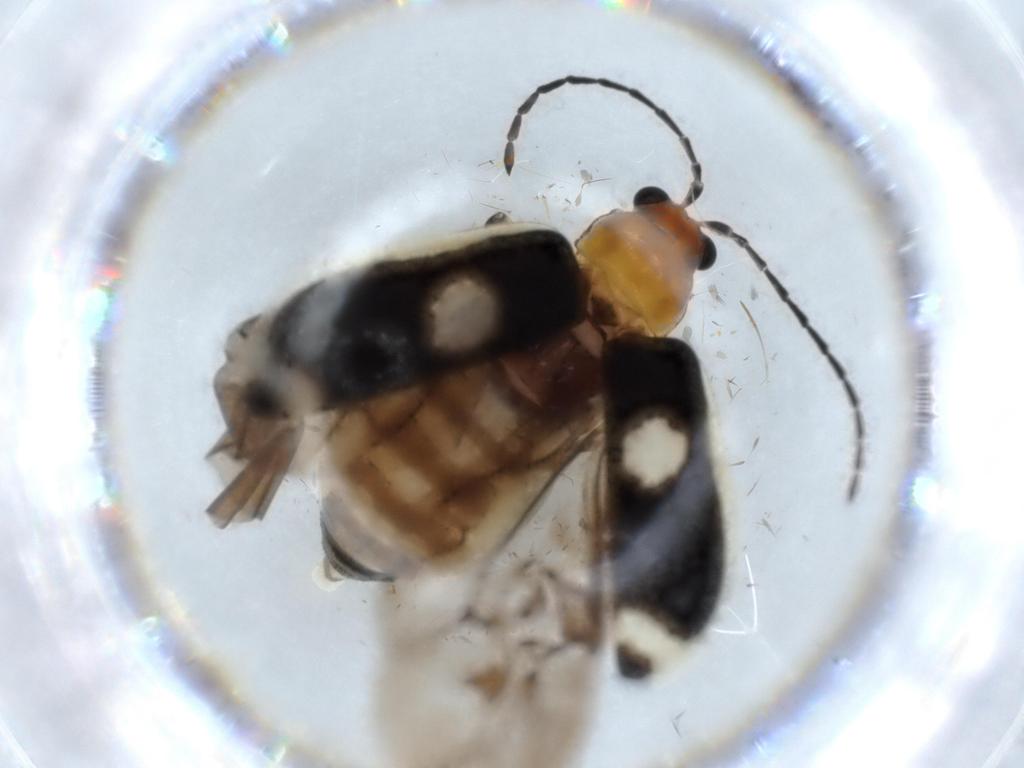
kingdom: Animalia
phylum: Arthropoda
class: Insecta
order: Coleoptera
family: Chrysomelidae
